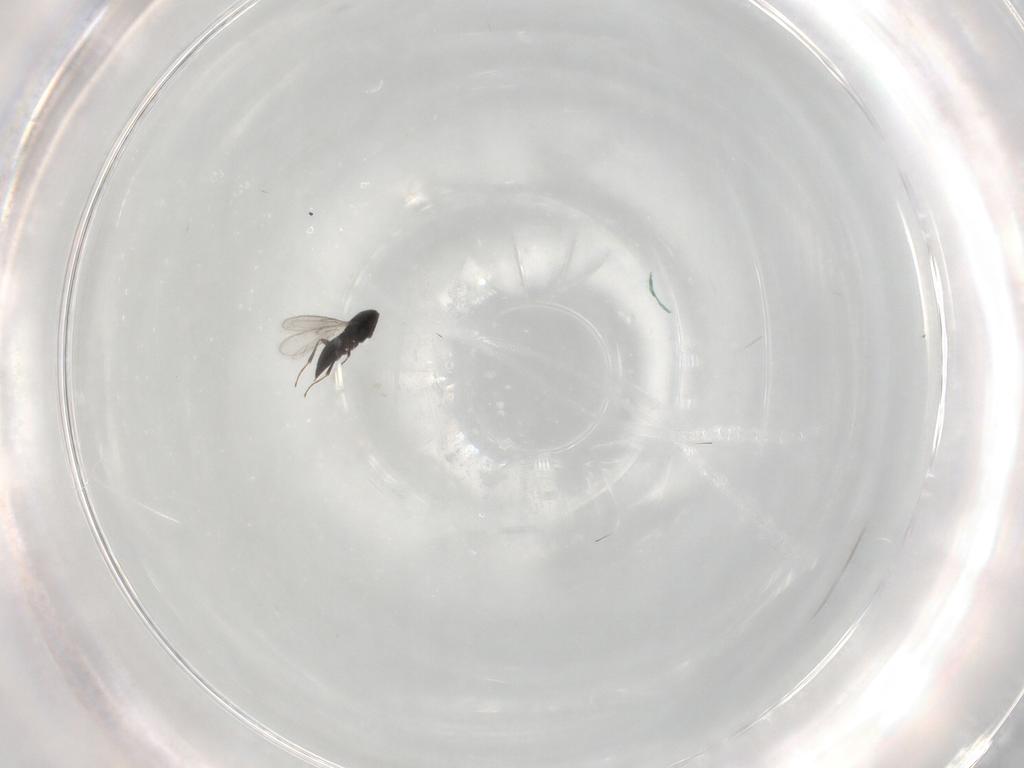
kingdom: Animalia
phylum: Arthropoda
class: Insecta
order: Hymenoptera
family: Scelionidae
